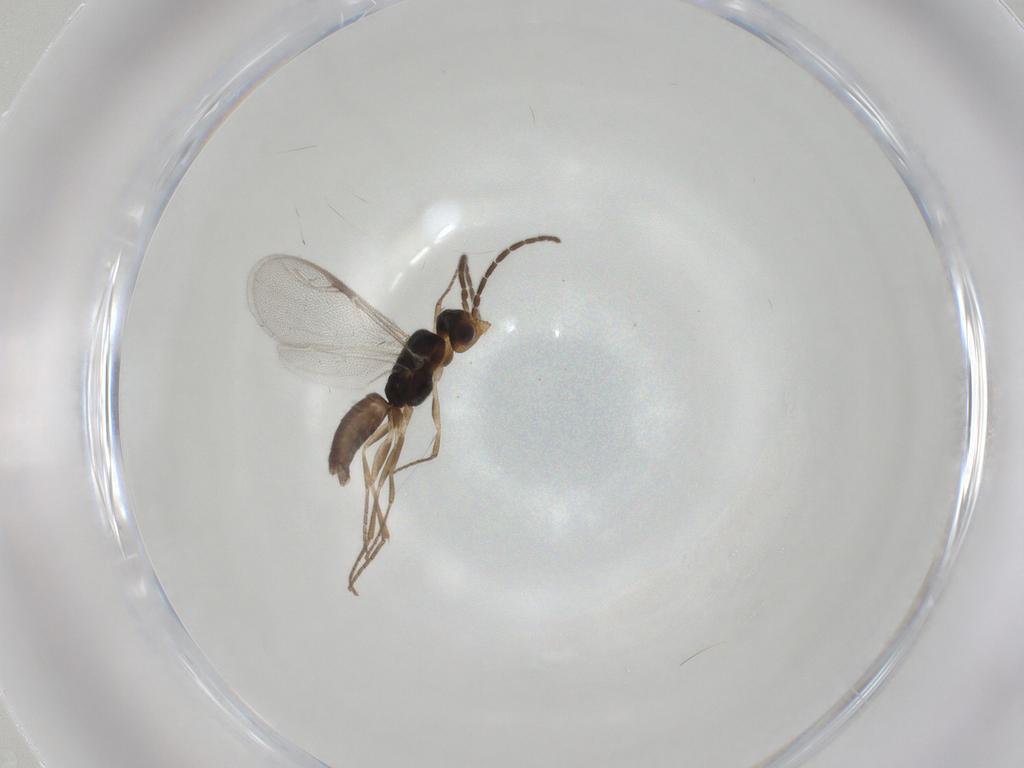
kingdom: Animalia
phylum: Arthropoda
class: Insecta
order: Hymenoptera
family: Dryinidae
